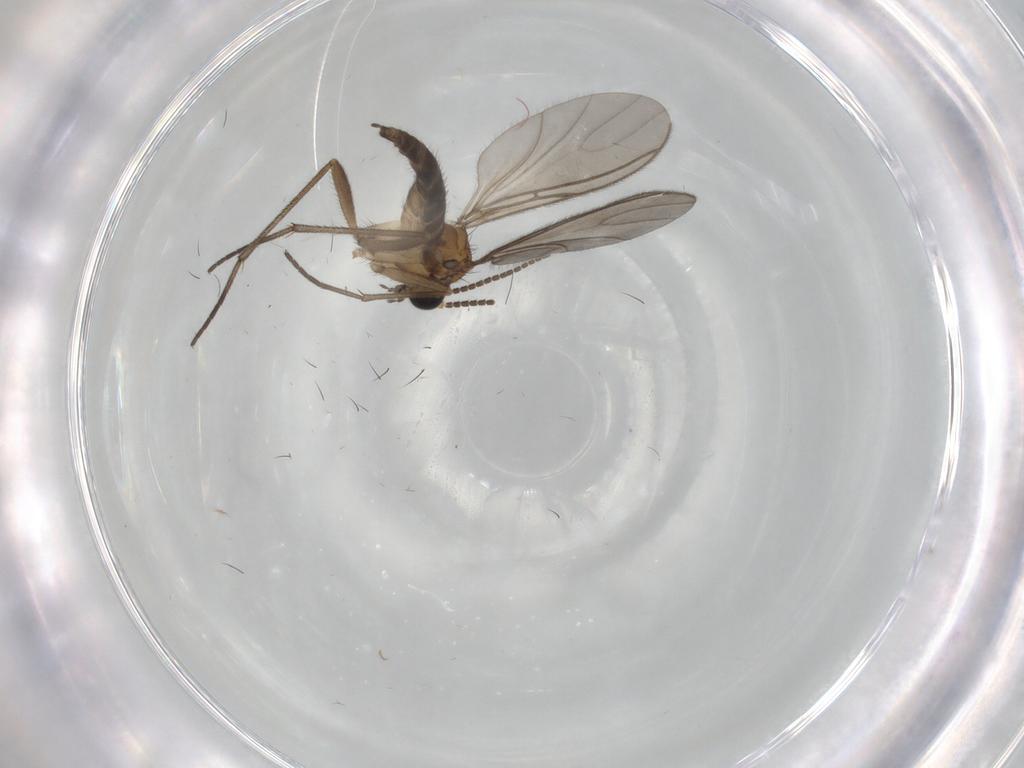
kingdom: Animalia
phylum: Arthropoda
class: Insecta
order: Diptera
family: Sciaridae
